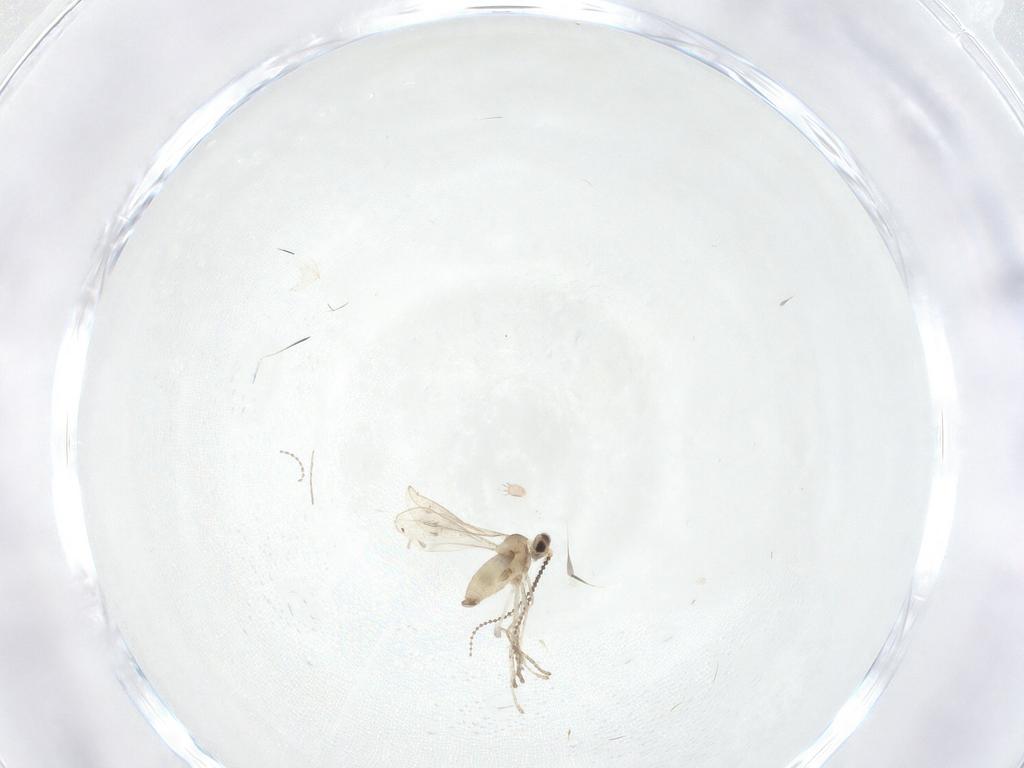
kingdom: Animalia
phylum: Arthropoda
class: Insecta
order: Diptera
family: Cecidomyiidae
